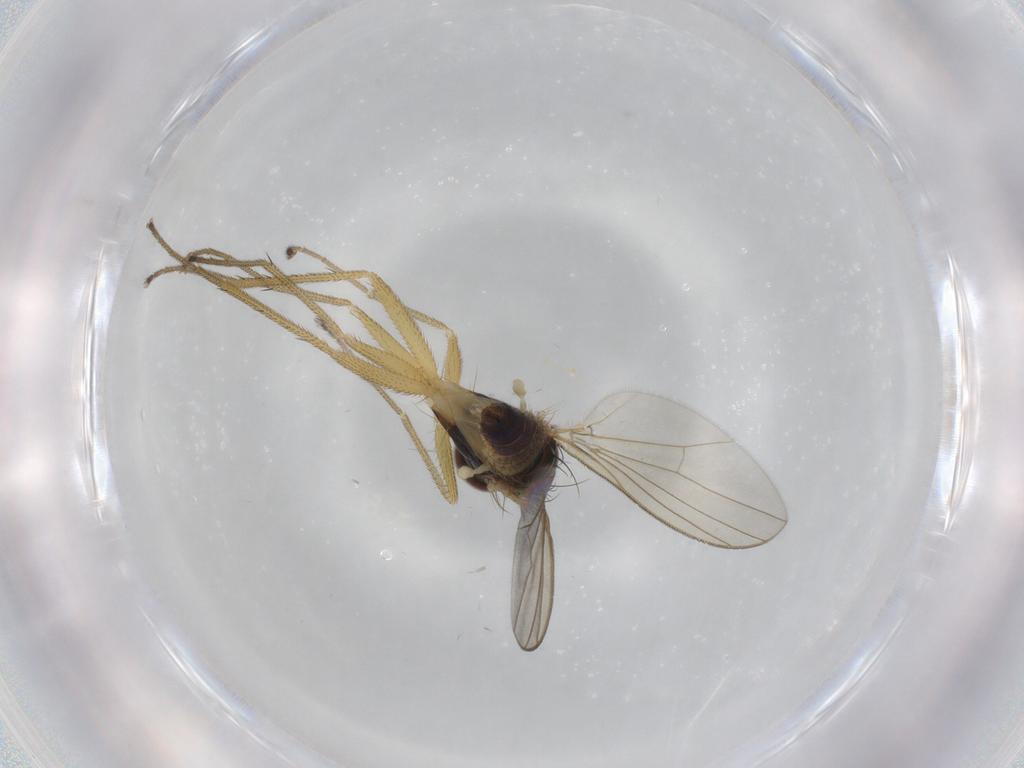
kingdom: Animalia
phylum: Arthropoda
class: Insecta
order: Diptera
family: Dolichopodidae
